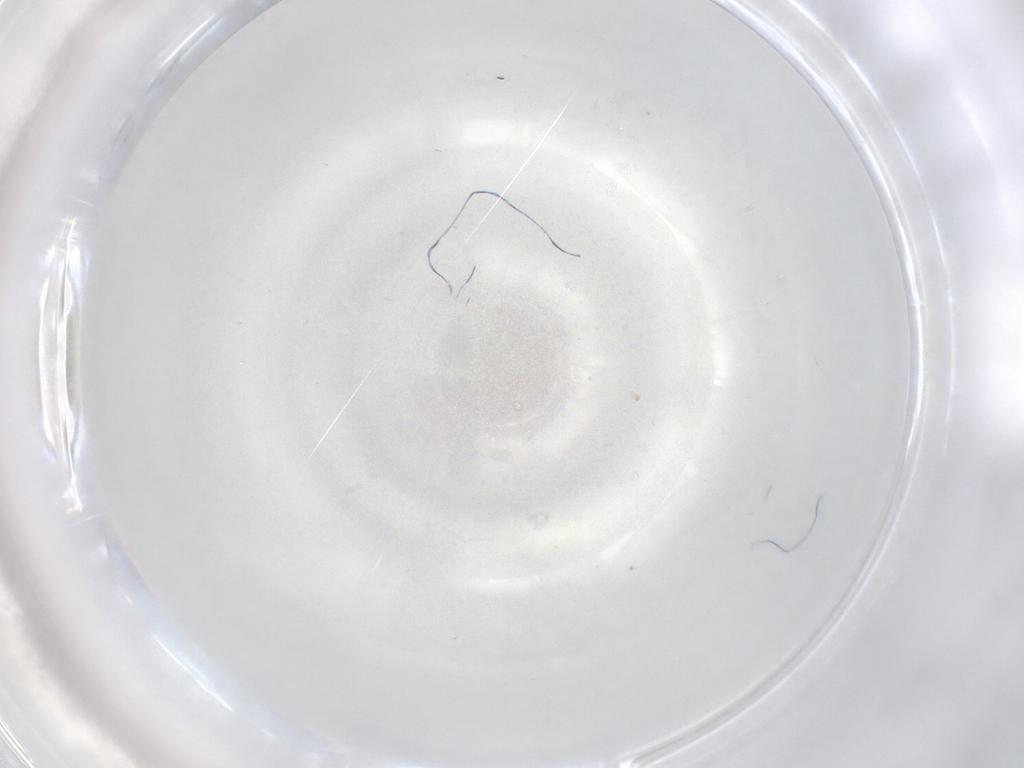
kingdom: Animalia
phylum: Arthropoda
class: Insecta
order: Diptera
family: Cecidomyiidae
